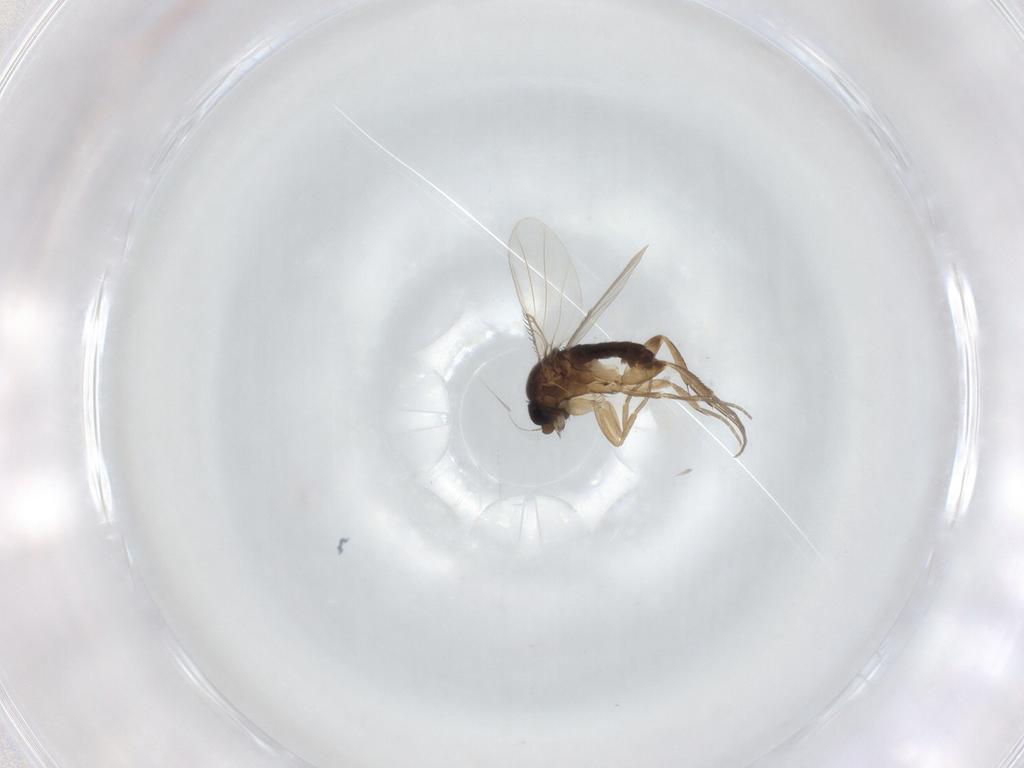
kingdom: Animalia
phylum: Arthropoda
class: Insecta
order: Diptera
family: Phoridae
